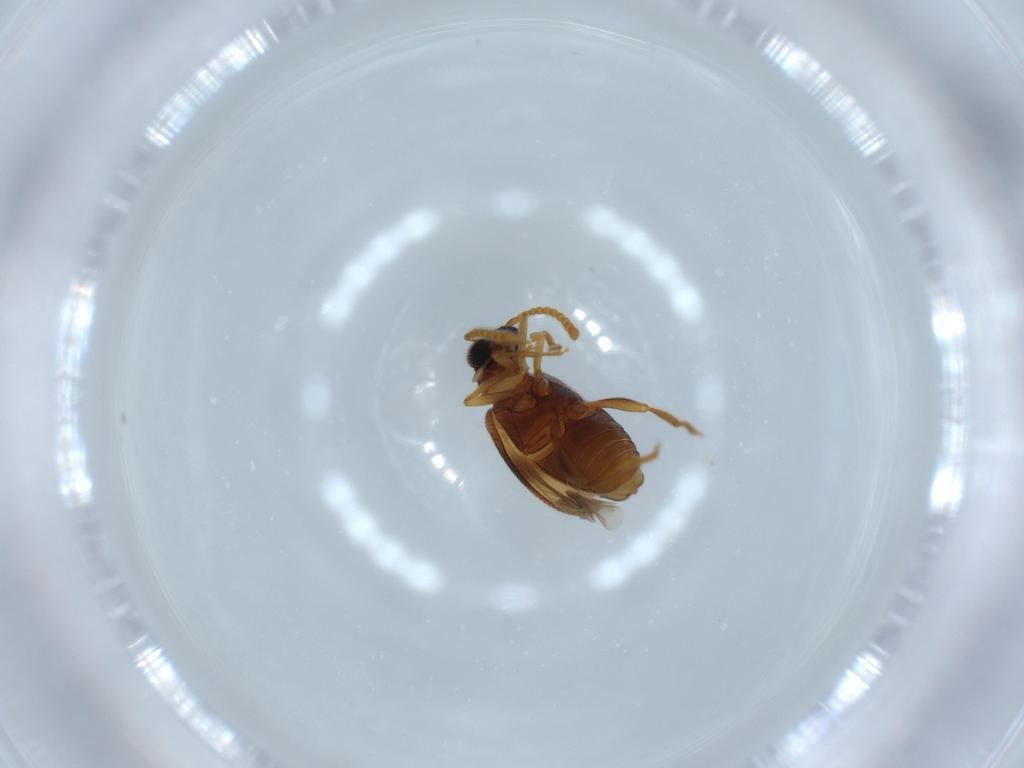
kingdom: Animalia
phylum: Arthropoda
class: Insecta
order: Coleoptera
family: Aderidae
